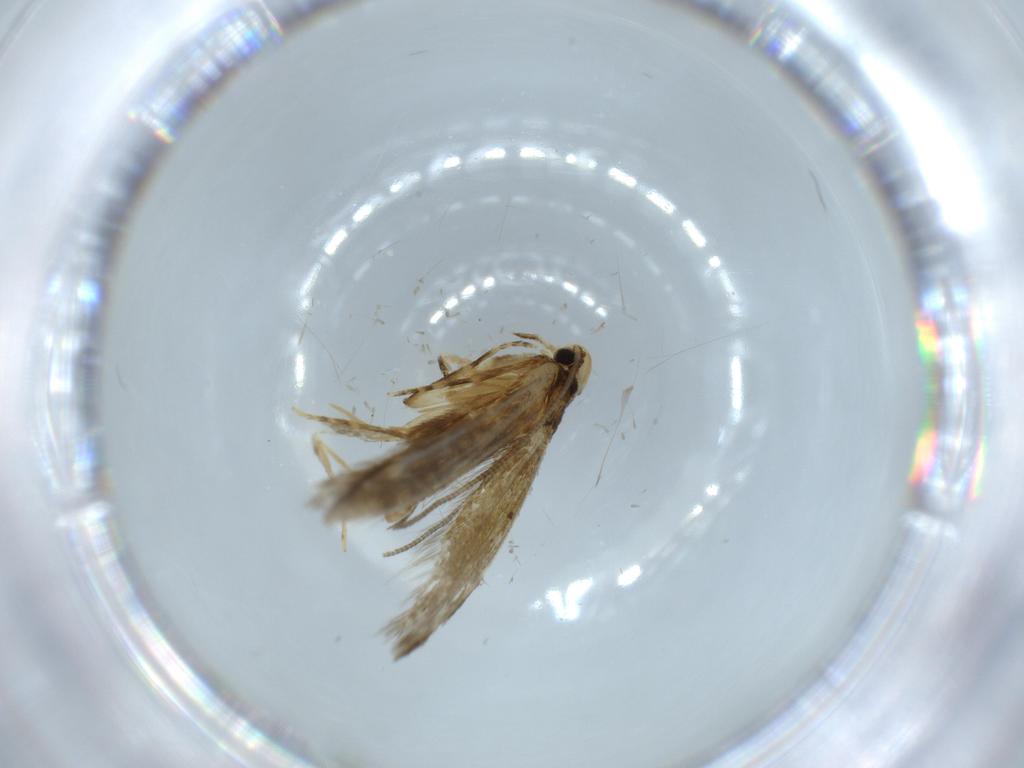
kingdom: Animalia
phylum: Arthropoda
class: Insecta
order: Lepidoptera
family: Tineidae
